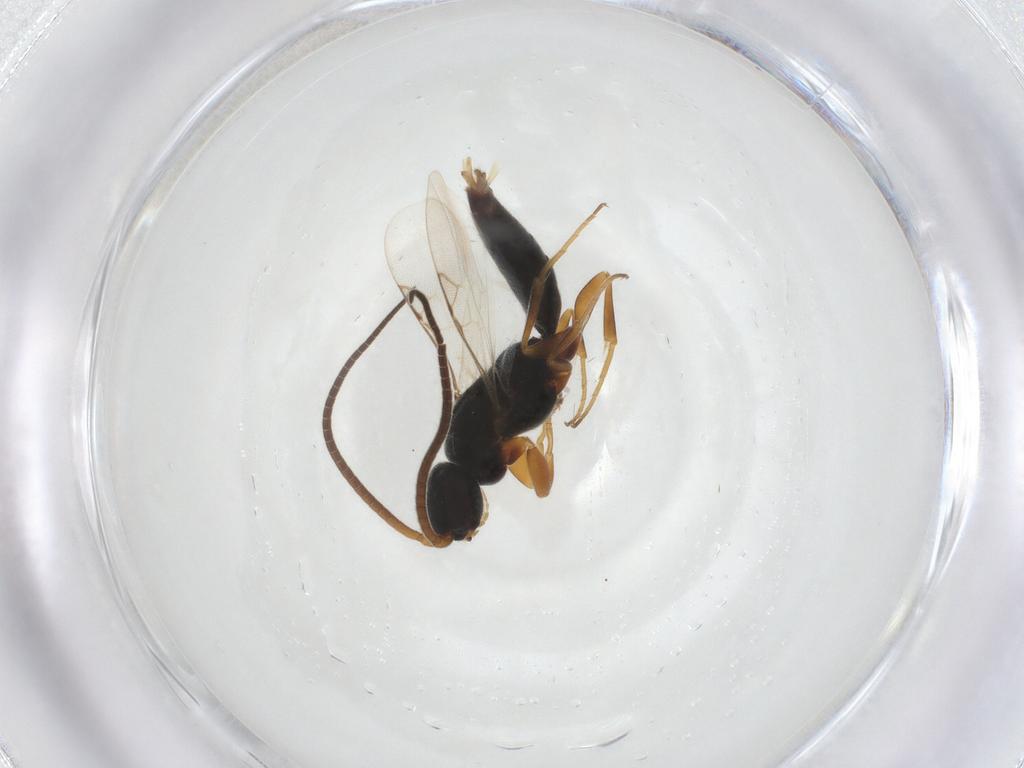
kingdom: Animalia
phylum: Arthropoda
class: Insecta
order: Hymenoptera
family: Sclerogibbidae
